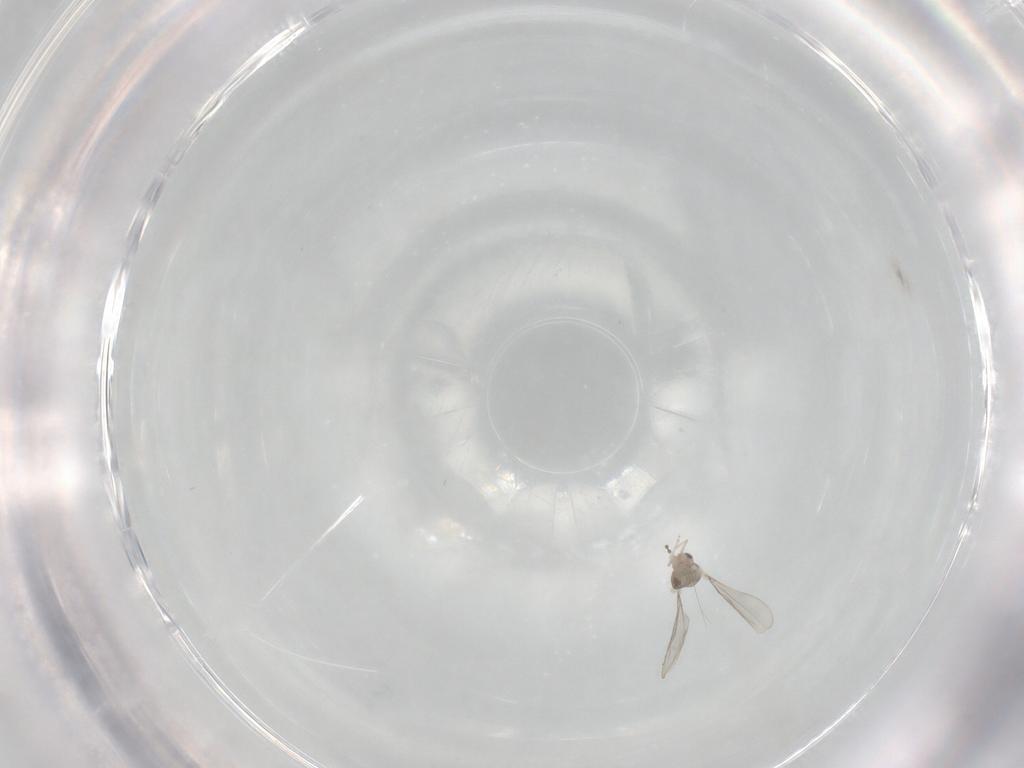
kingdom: Animalia
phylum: Arthropoda
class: Insecta
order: Diptera
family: Cecidomyiidae
